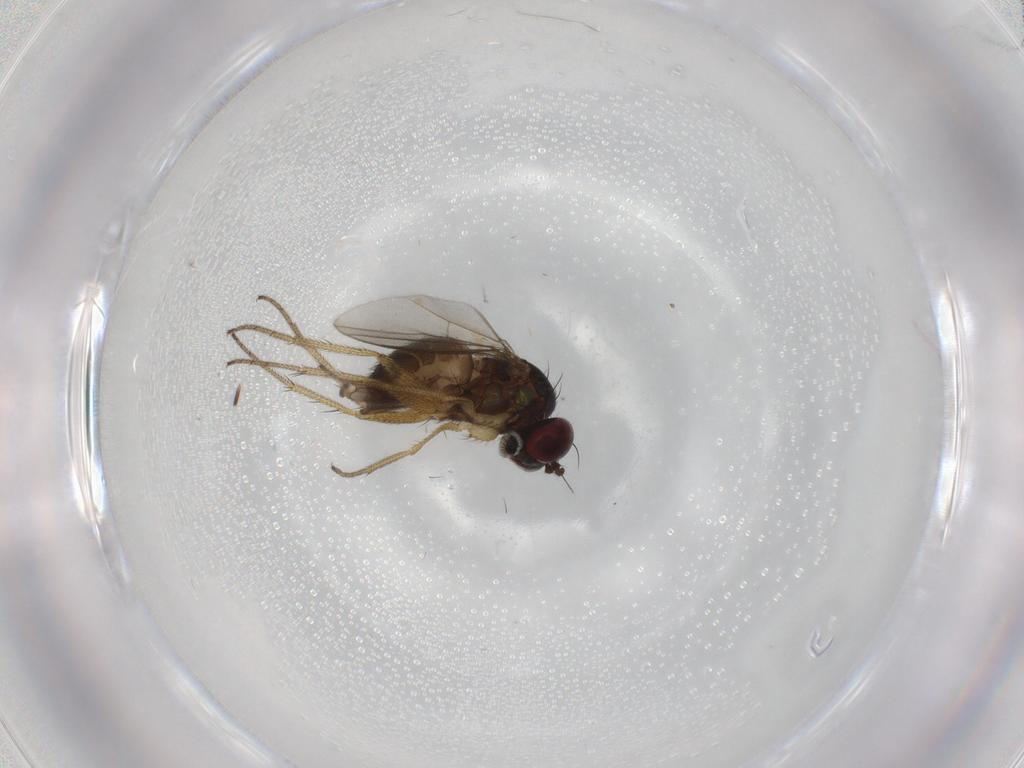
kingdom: Animalia
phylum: Arthropoda
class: Insecta
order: Diptera
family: Dolichopodidae
